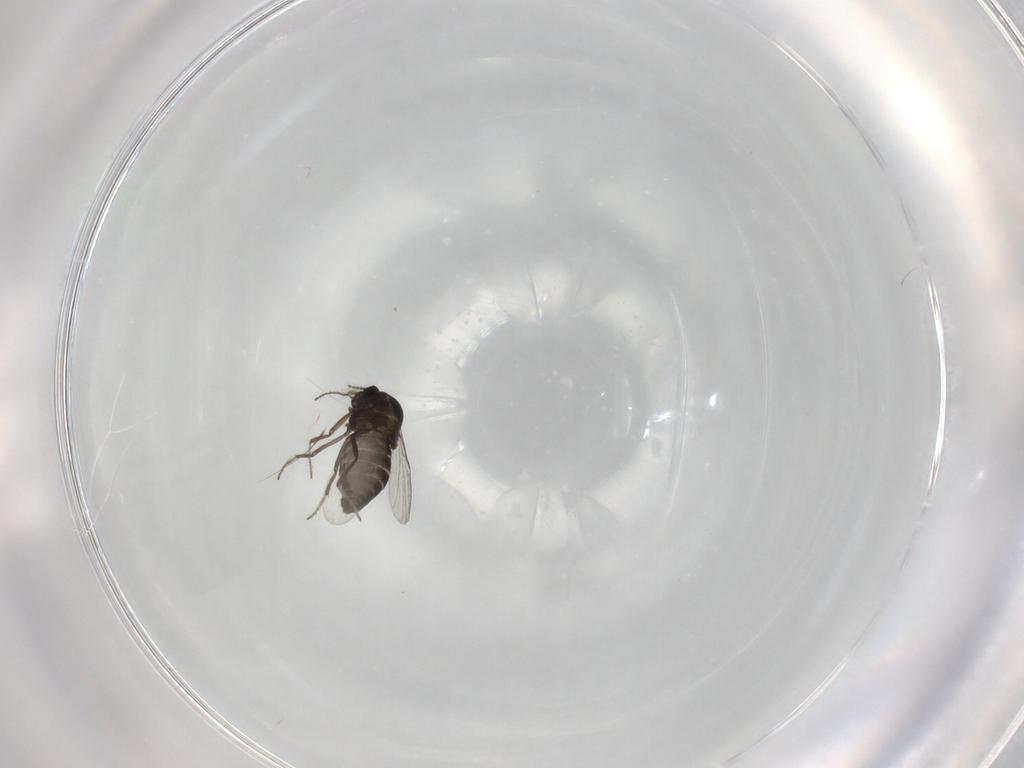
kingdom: Animalia
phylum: Arthropoda
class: Insecta
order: Diptera
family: Ceratopogonidae
